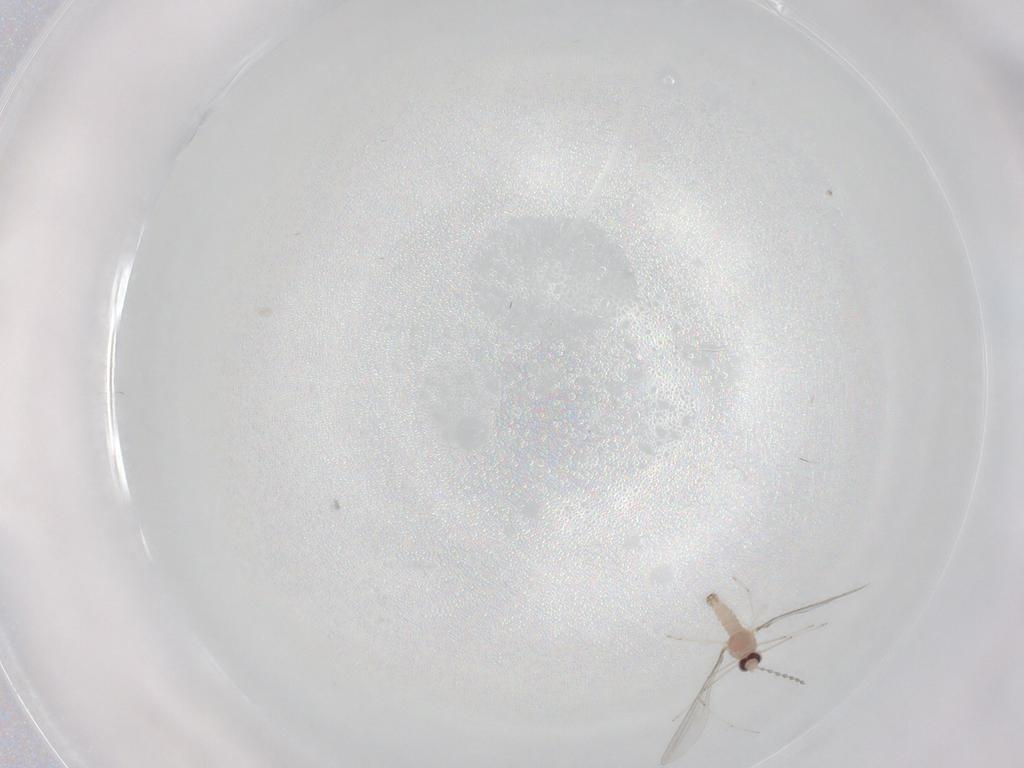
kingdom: Animalia
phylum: Arthropoda
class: Insecta
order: Diptera
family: Cecidomyiidae
